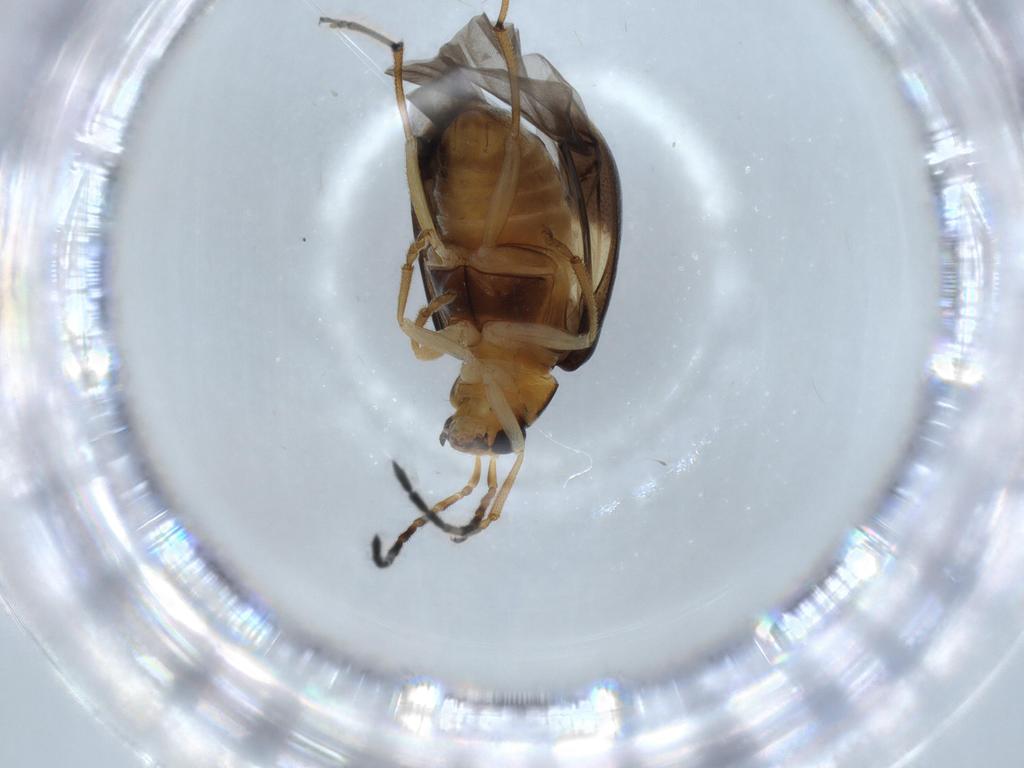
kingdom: Animalia
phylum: Arthropoda
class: Insecta
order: Coleoptera
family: Chrysomelidae
